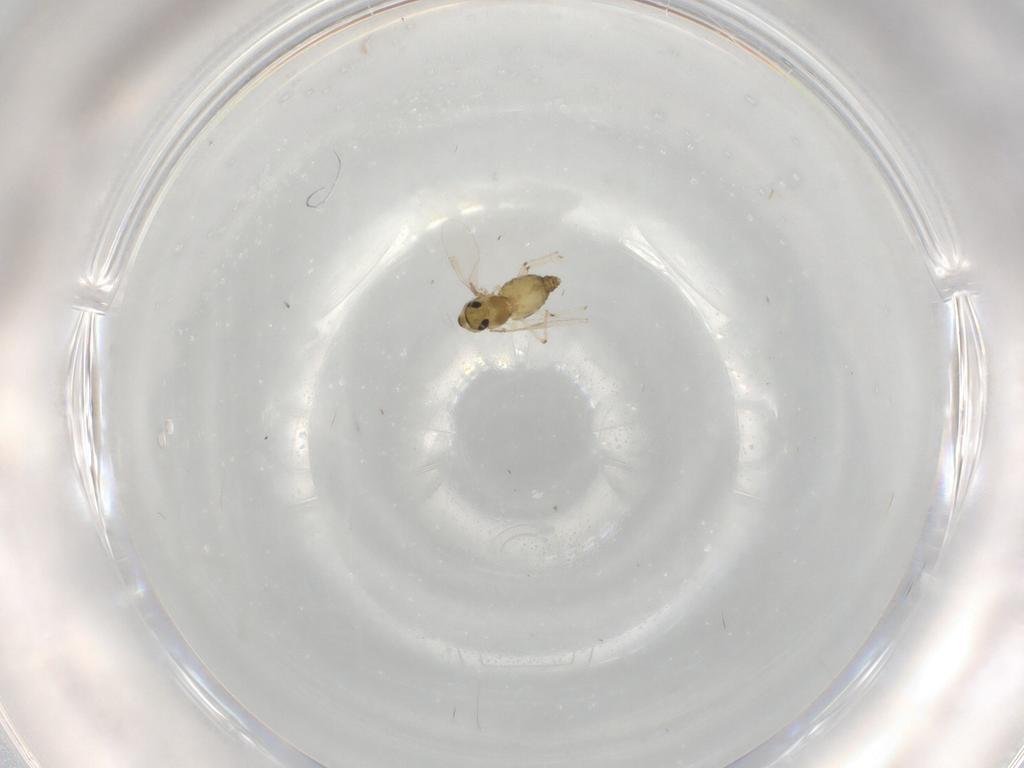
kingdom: Animalia
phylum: Arthropoda
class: Insecta
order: Diptera
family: Chironomidae
